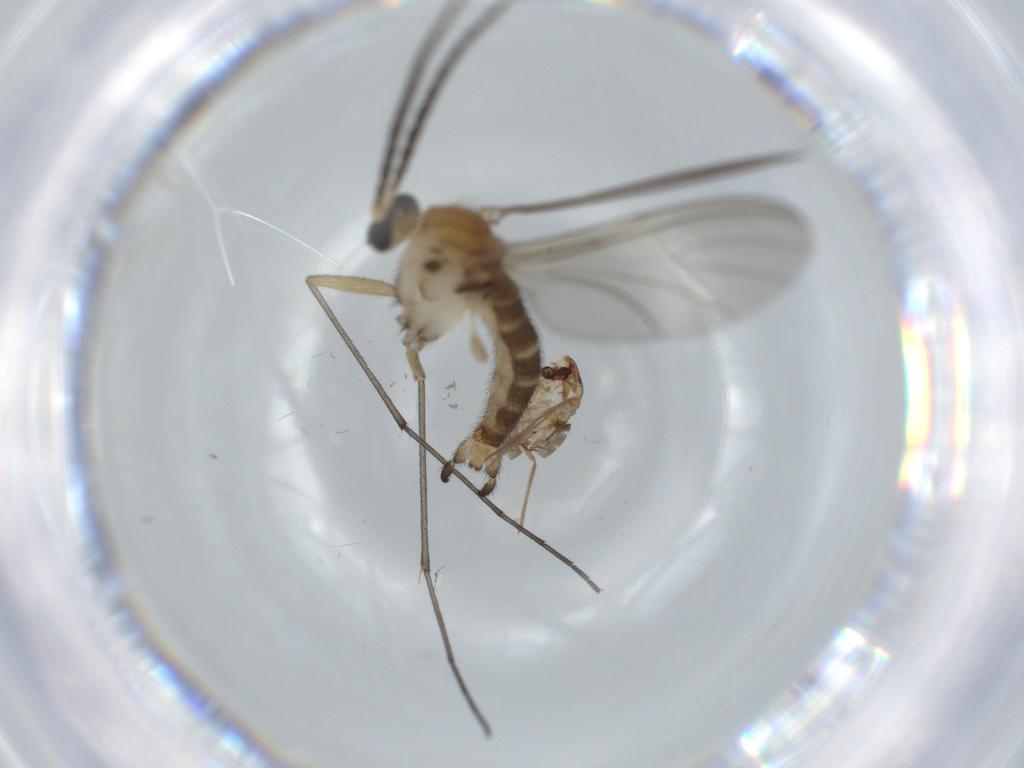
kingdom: Animalia
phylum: Arthropoda
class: Insecta
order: Diptera
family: Sciaridae
